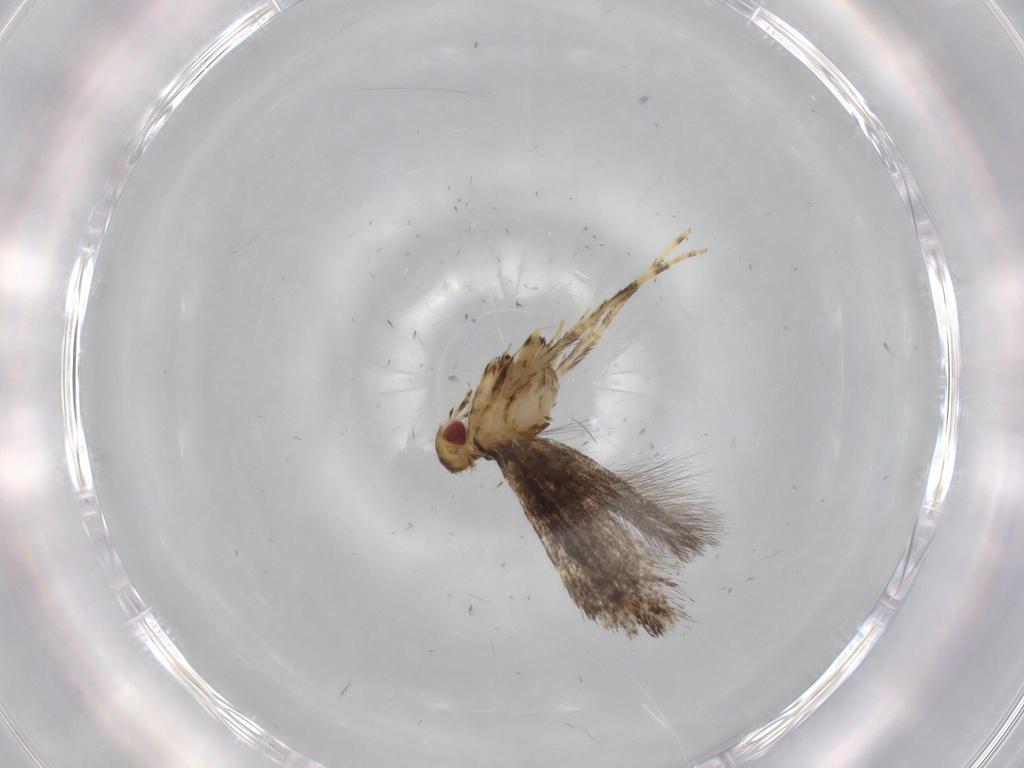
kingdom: Animalia
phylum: Arthropoda
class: Insecta
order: Lepidoptera
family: Gracillariidae
